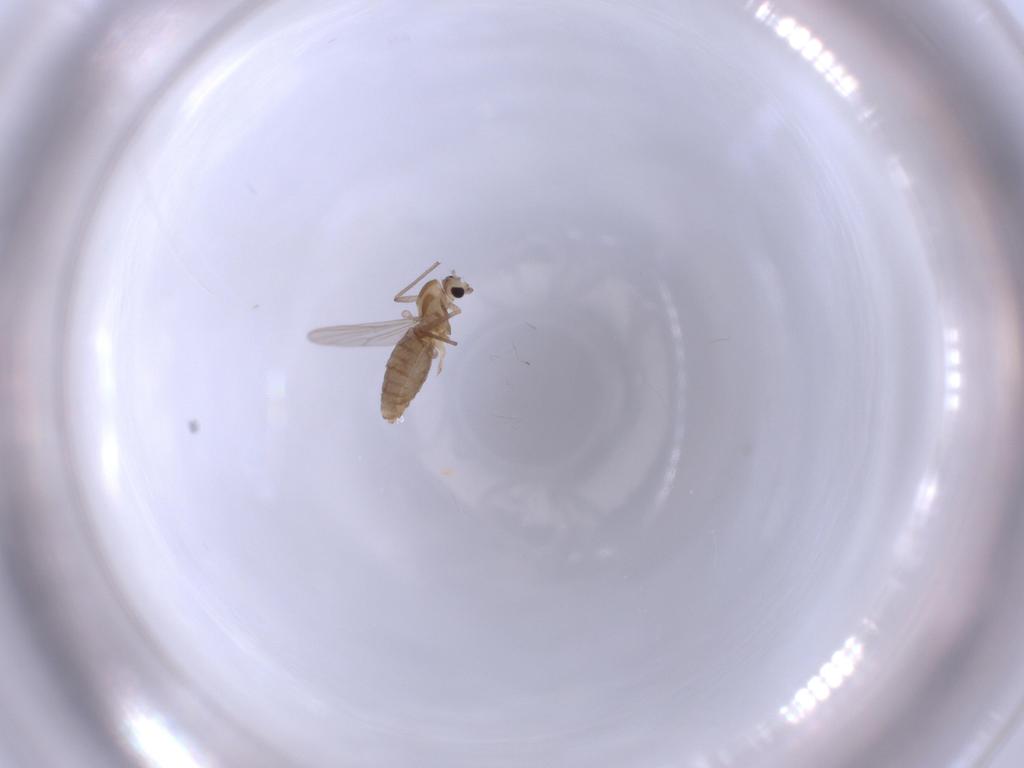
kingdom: Animalia
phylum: Arthropoda
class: Insecta
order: Diptera
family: Chironomidae
